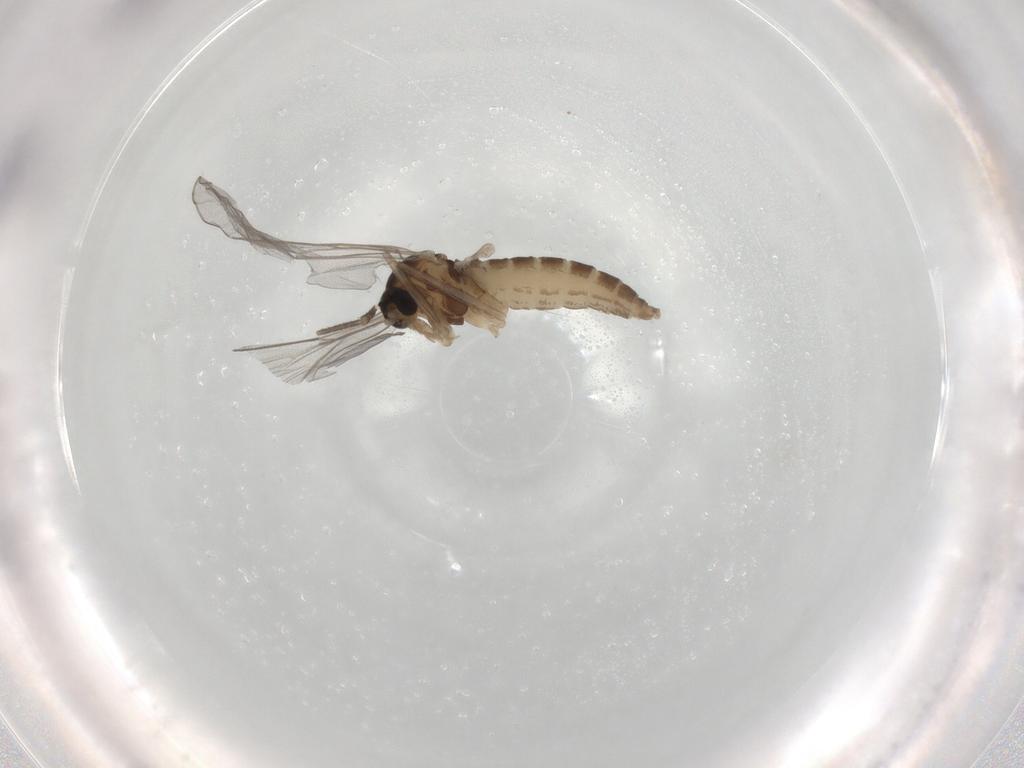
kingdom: Animalia
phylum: Arthropoda
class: Insecta
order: Diptera
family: Cecidomyiidae
